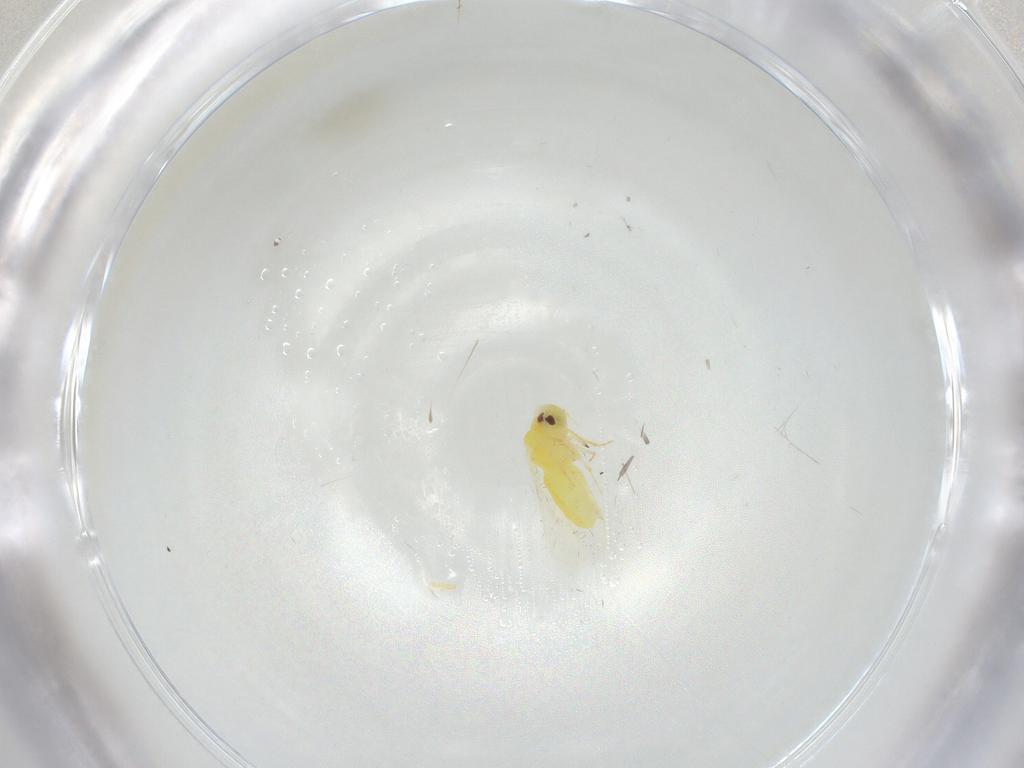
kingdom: Animalia
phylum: Arthropoda
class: Insecta
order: Hemiptera
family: Aleyrodidae
